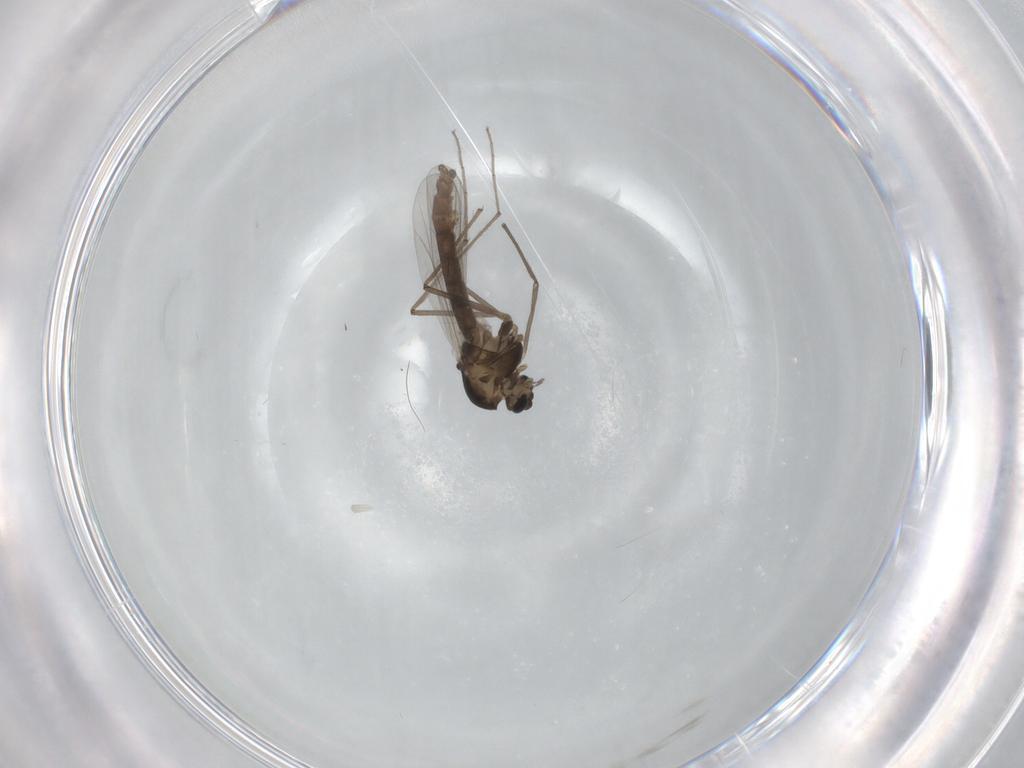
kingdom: Animalia
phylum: Arthropoda
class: Insecta
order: Diptera
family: Chironomidae
